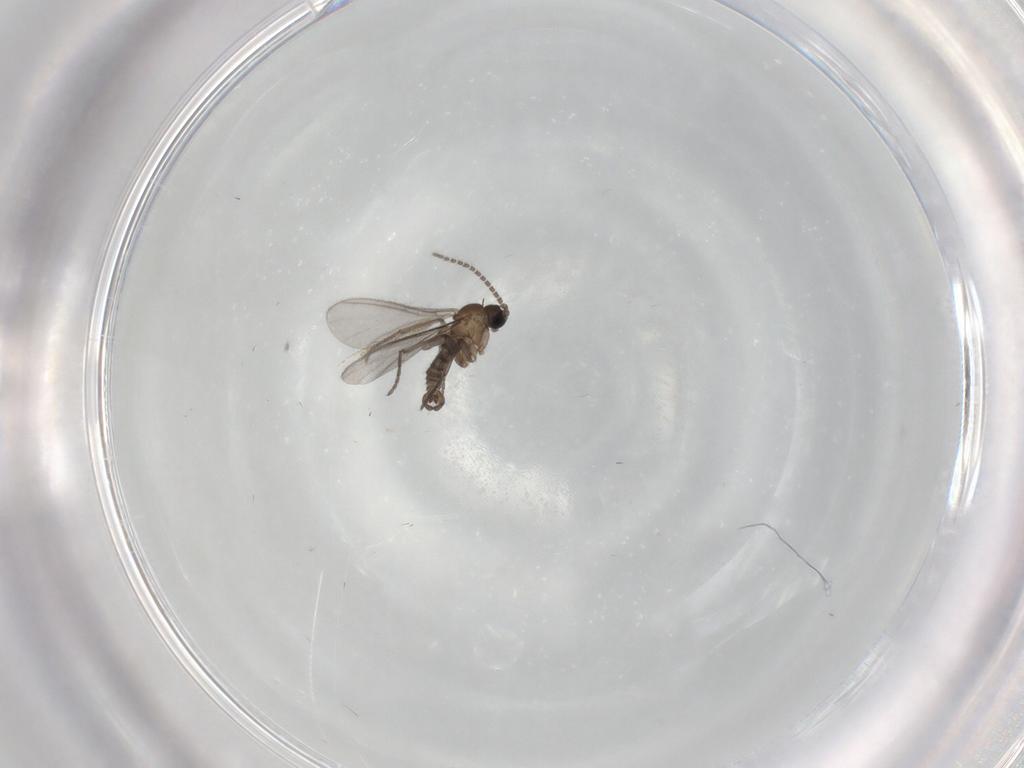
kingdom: Animalia
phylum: Arthropoda
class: Insecta
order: Diptera
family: Sciaridae
